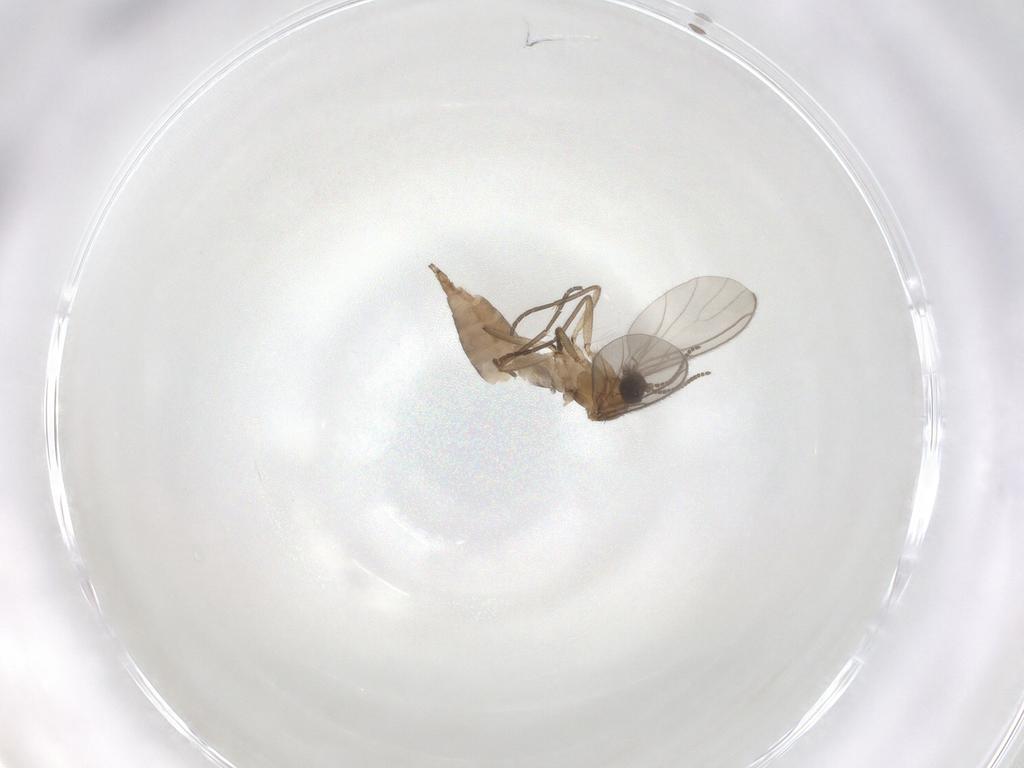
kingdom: Animalia
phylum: Arthropoda
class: Insecta
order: Diptera
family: Sciaridae
